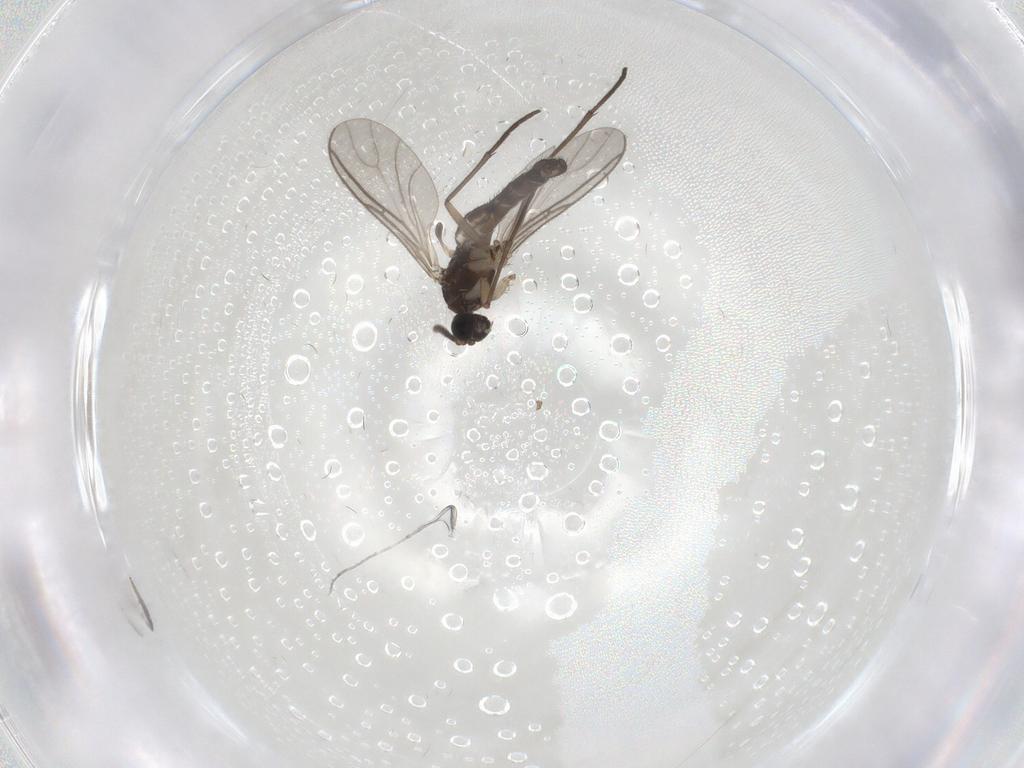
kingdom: Animalia
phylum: Arthropoda
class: Insecta
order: Diptera
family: Sciaridae
